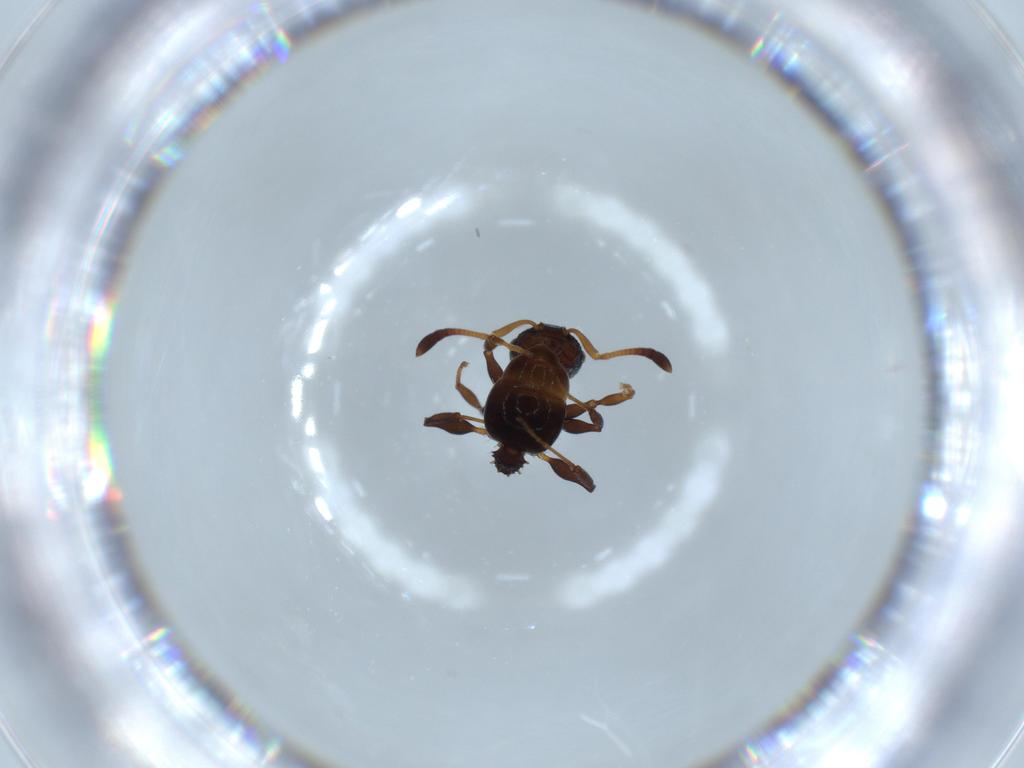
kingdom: Animalia
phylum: Arthropoda
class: Insecta
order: Hymenoptera
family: Formicidae
